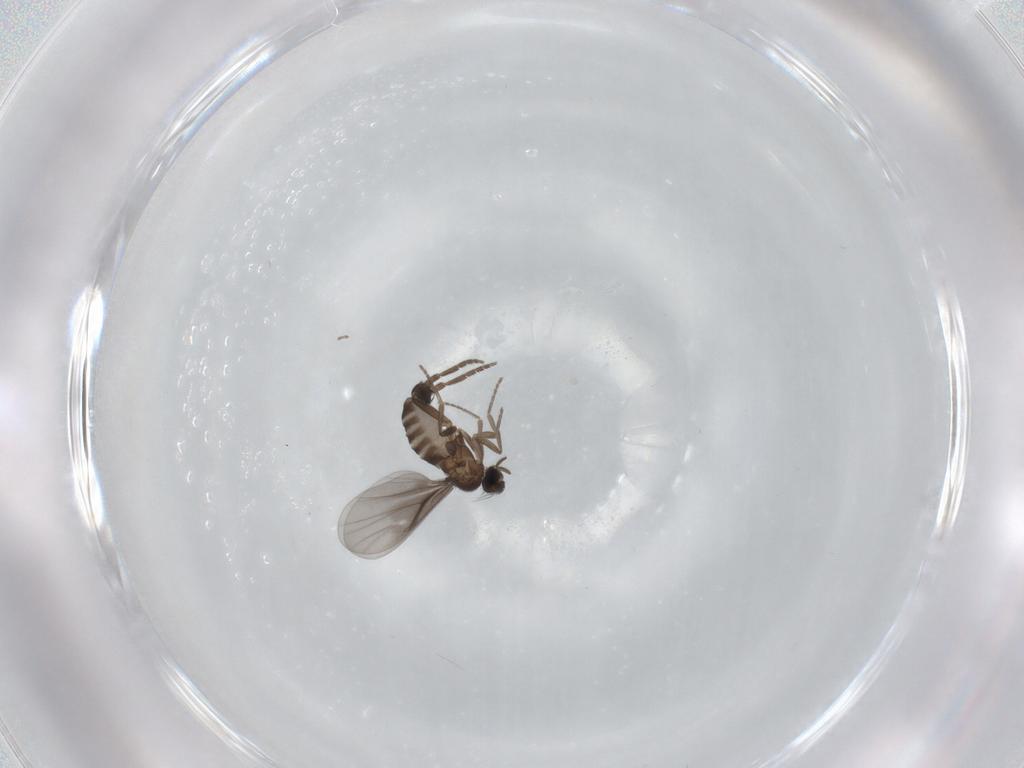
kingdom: Animalia
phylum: Arthropoda
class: Insecta
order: Diptera
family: Phoridae
